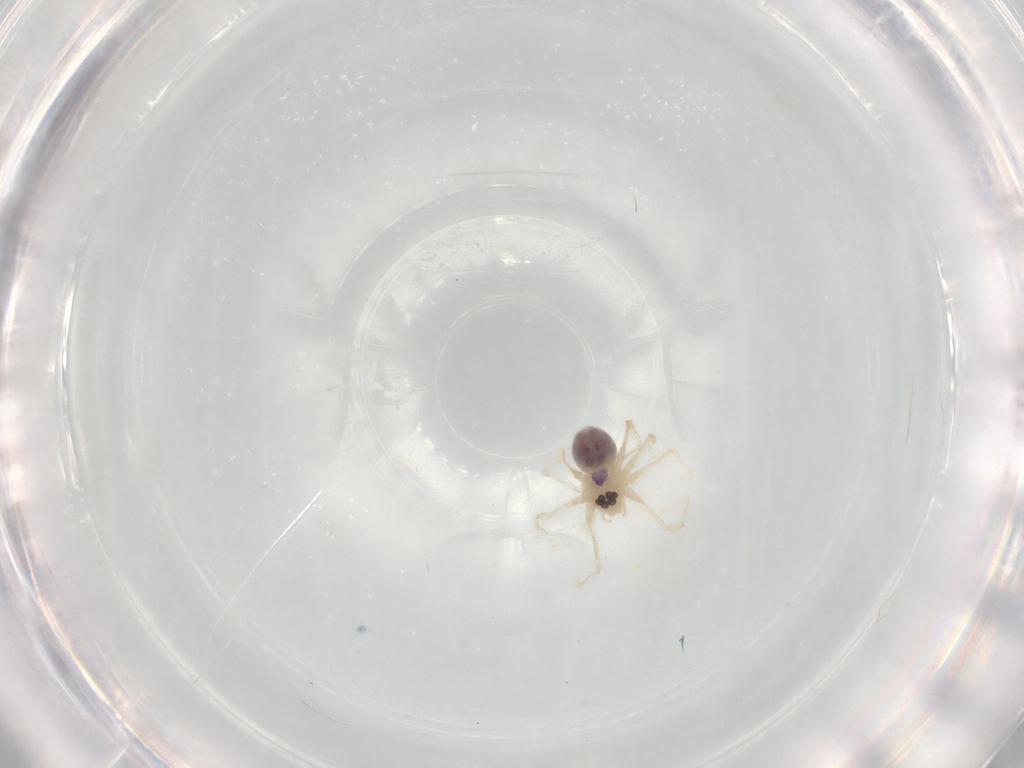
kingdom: Animalia
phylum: Arthropoda
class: Arachnida
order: Araneae
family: Pholcidae
